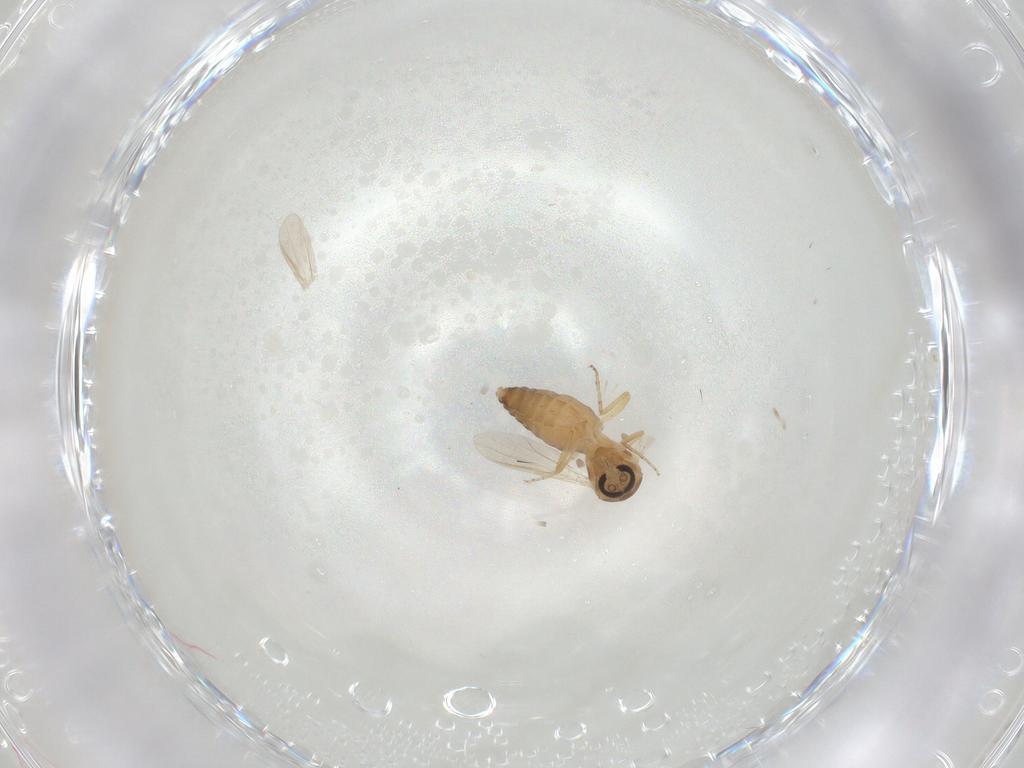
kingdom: Animalia
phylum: Arthropoda
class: Insecta
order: Diptera
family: Ceratopogonidae
